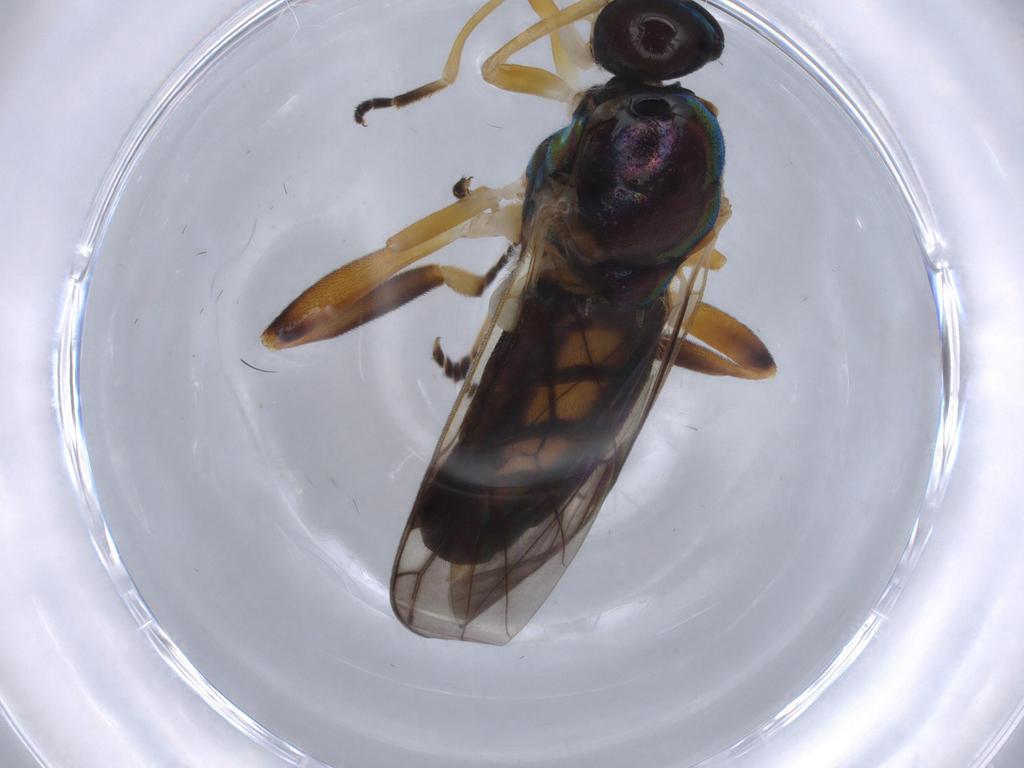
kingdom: Animalia
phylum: Arthropoda
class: Insecta
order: Diptera
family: Stratiomyidae
